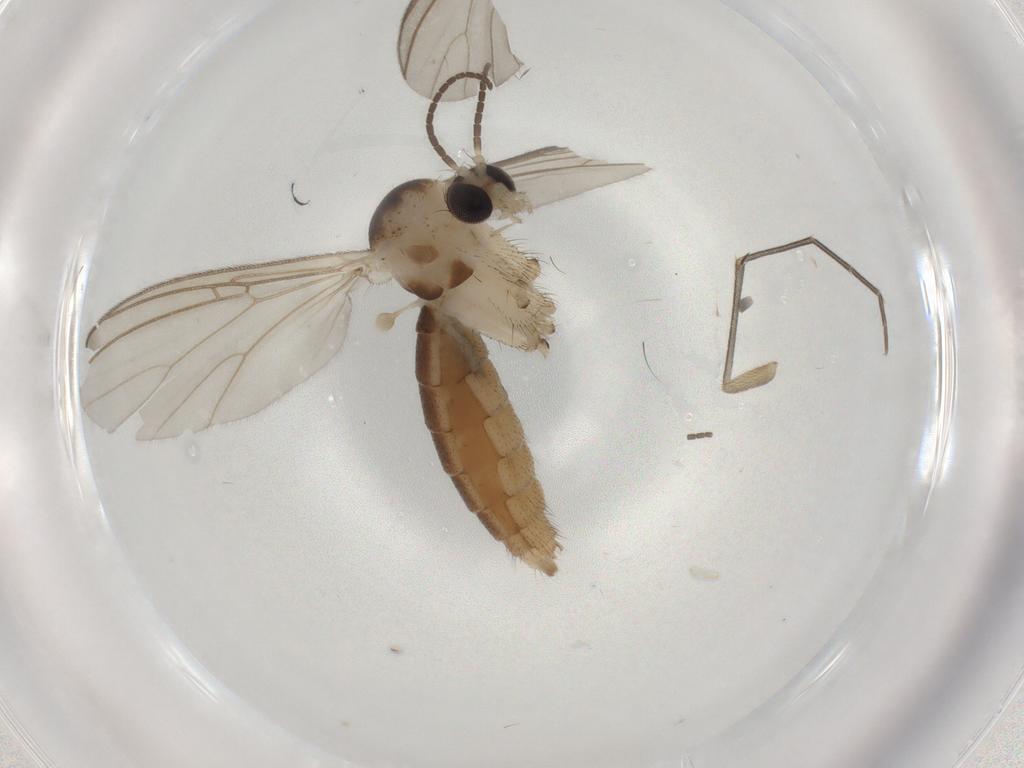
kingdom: Animalia
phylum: Arthropoda
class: Insecta
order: Diptera
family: Mycetophilidae
